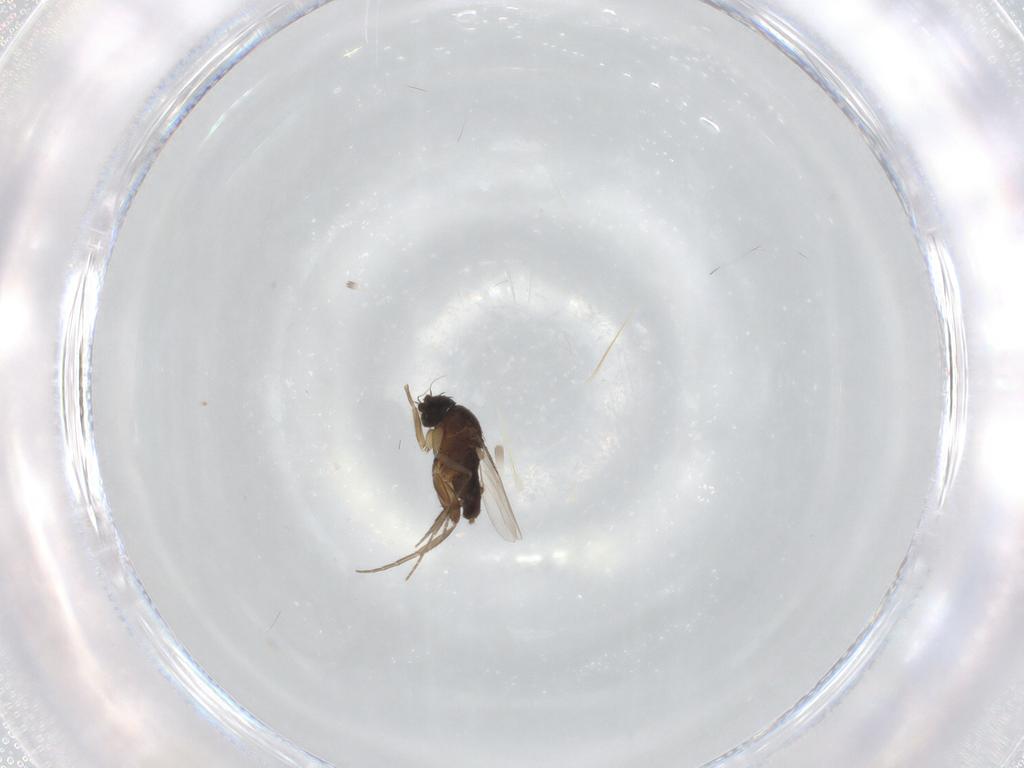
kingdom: Animalia
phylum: Arthropoda
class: Insecta
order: Diptera
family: Phoridae
